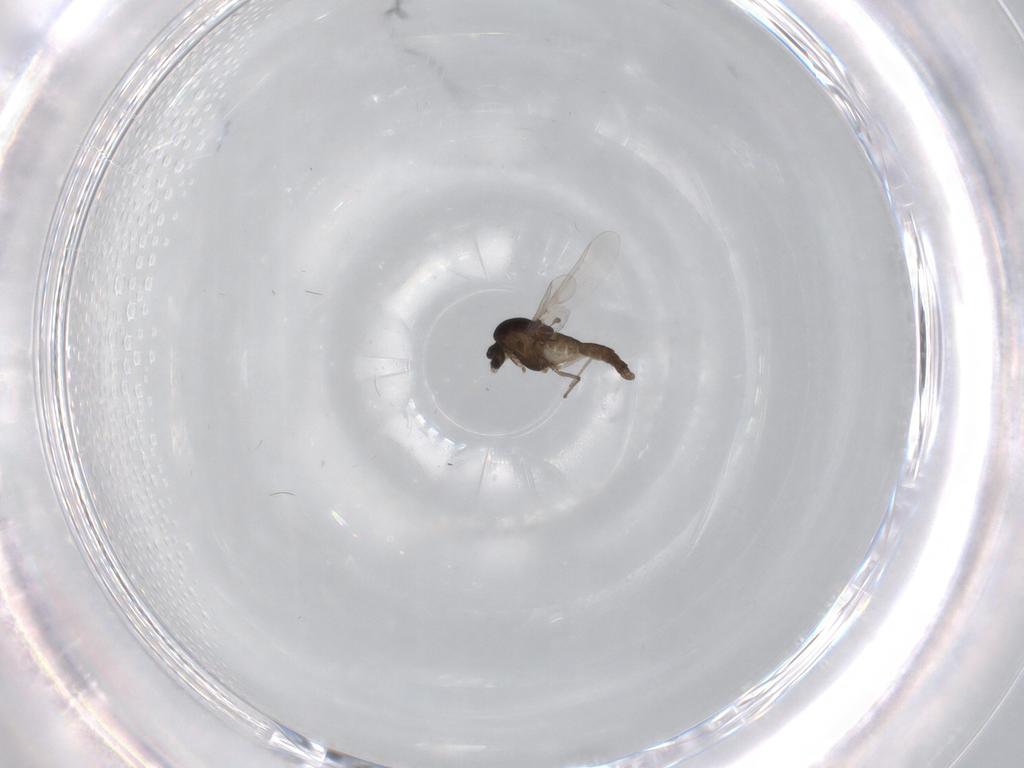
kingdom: Animalia
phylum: Arthropoda
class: Insecta
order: Diptera
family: Chironomidae
